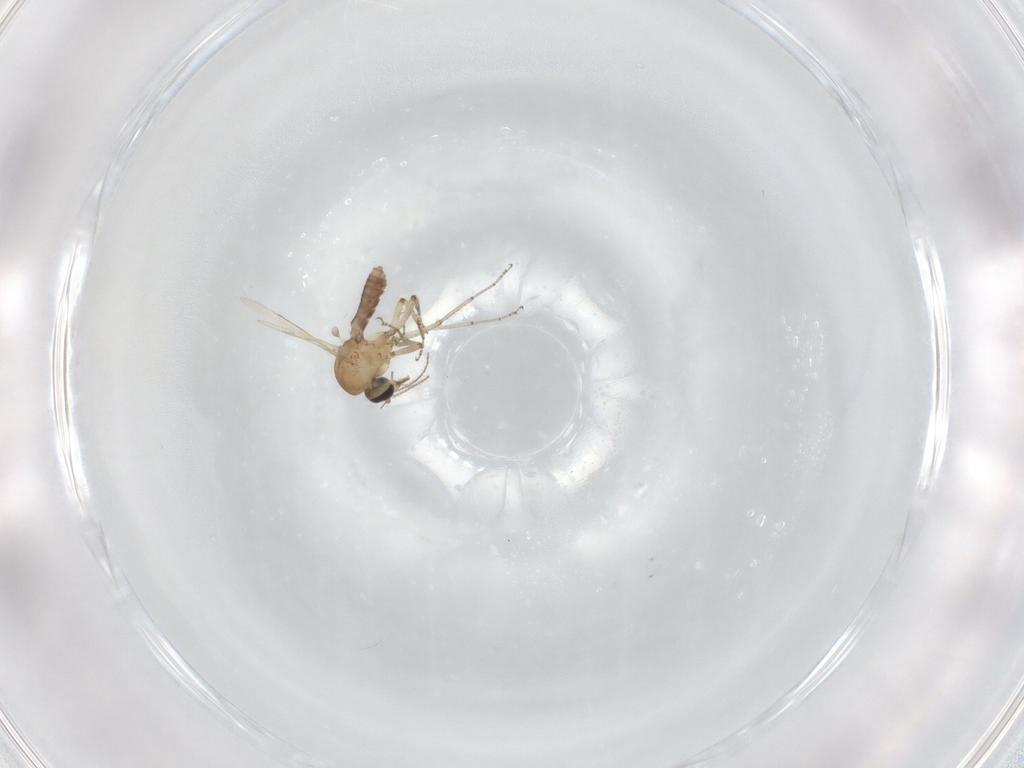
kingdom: Animalia
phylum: Arthropoda
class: Insecta
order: Diptera
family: Ceratopogonidae
